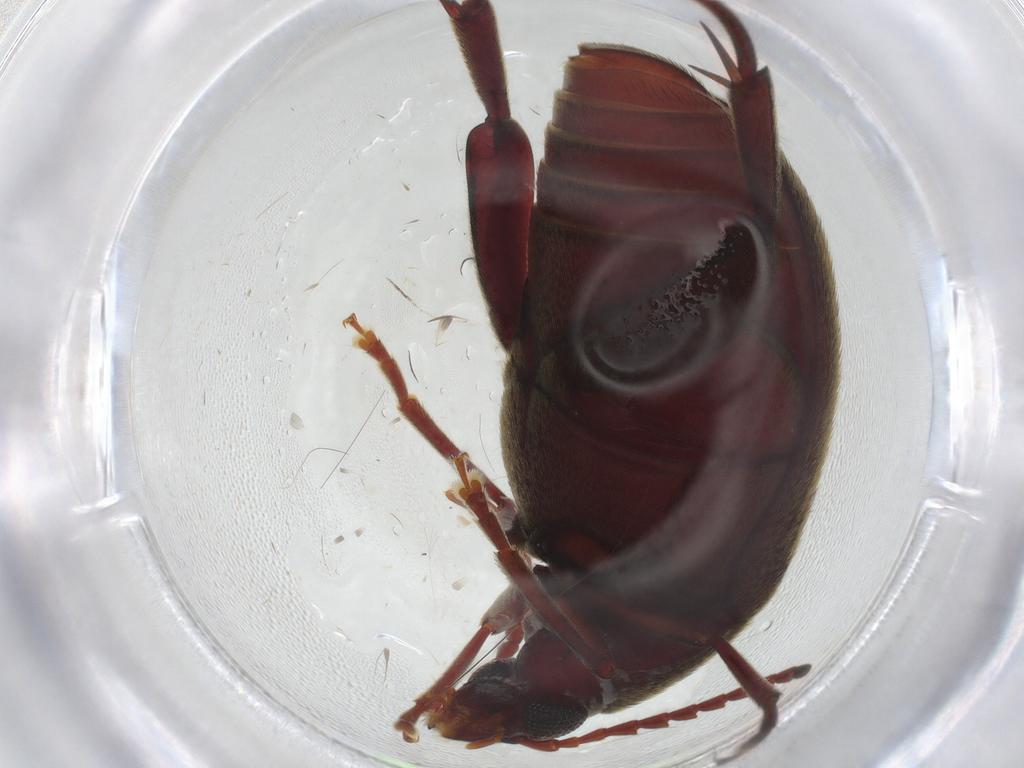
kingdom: Animalia
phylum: Arthropoda
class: Insecta
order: Coleoptera
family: Chrysomelidae
